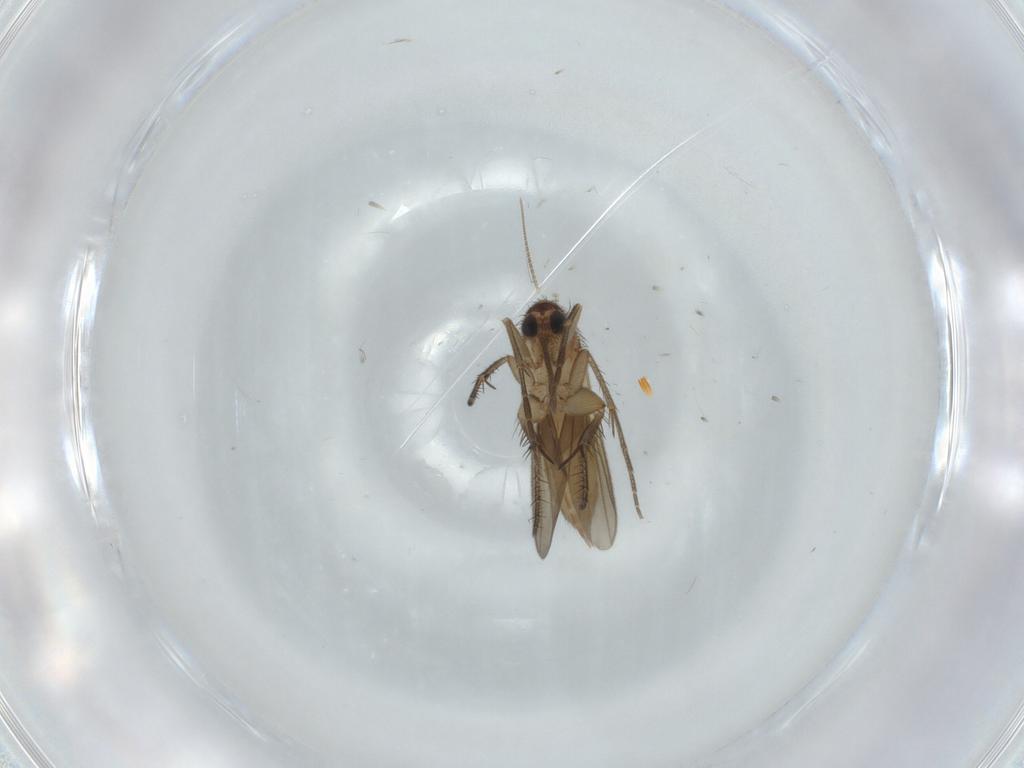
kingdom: Animalia
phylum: Arthropoda
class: Insecta
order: Diptera
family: Mycetophilidae
